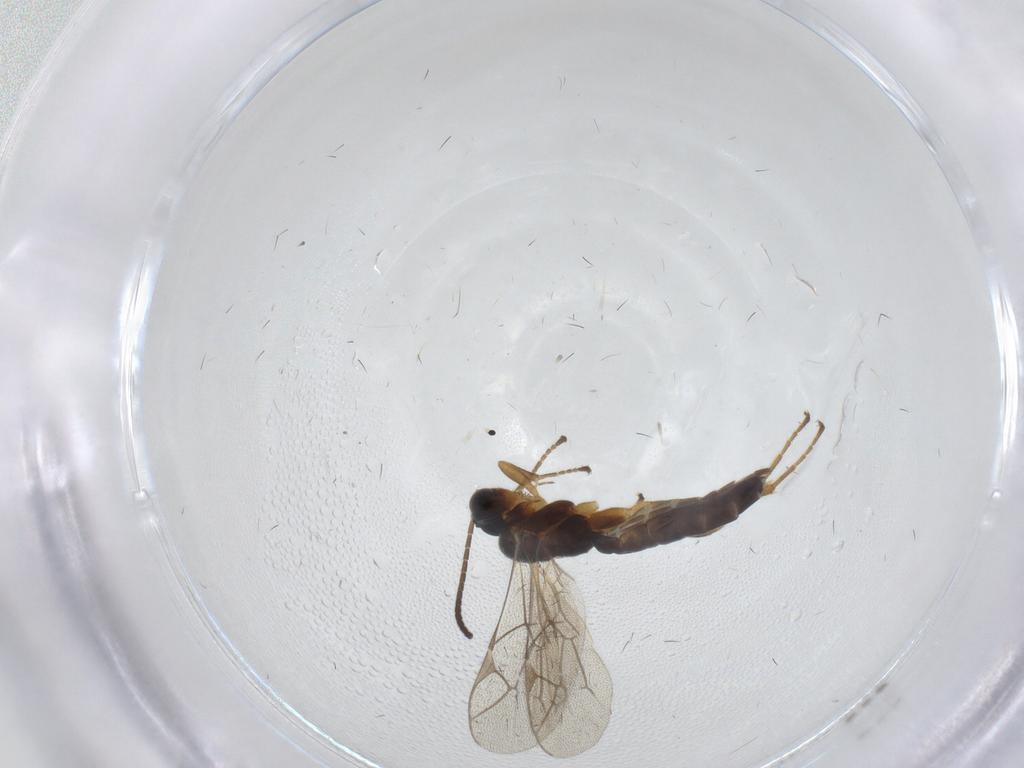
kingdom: Animalia
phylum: Arthropoda
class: Insecta
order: Hymenoptera
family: Ichneumonidae
